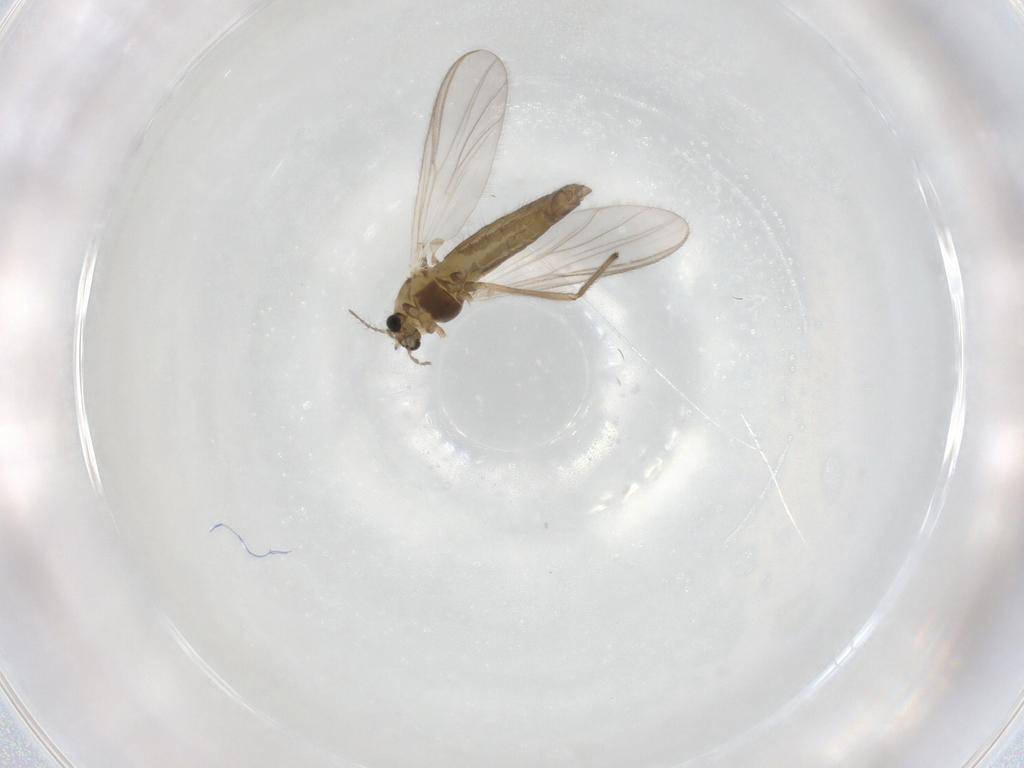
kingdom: Animalia
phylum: Arthropoda
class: Insecta
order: Diptera
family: Chironomidae
